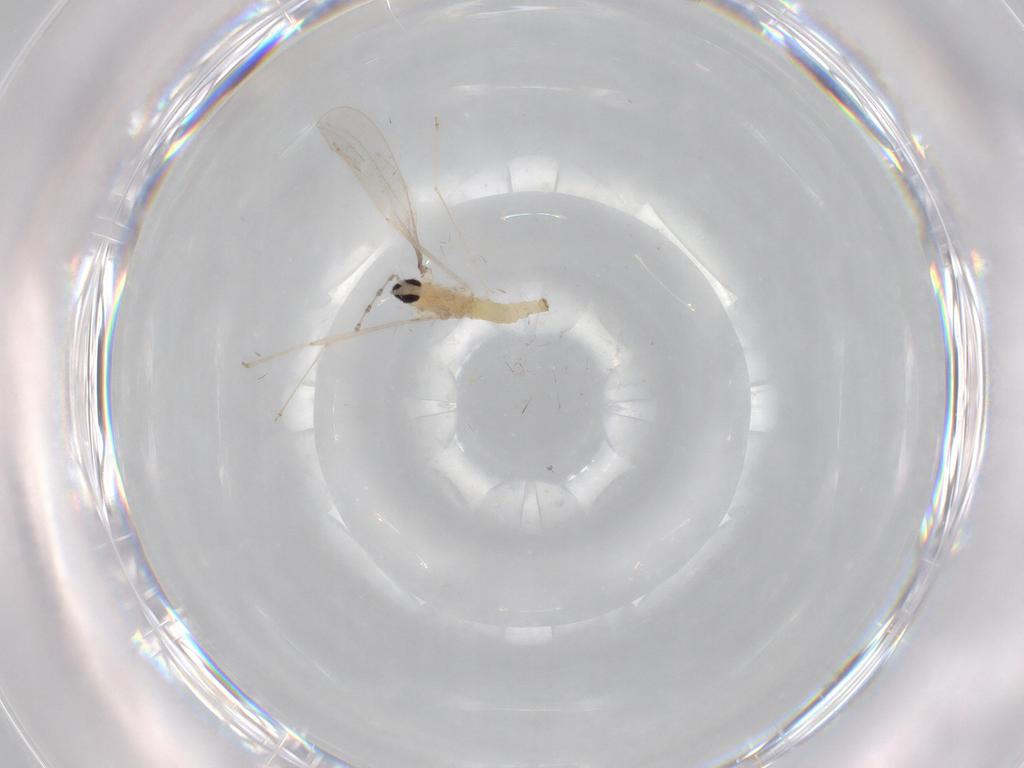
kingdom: Animalia
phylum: Arthropoda
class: Insecta
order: Diptera
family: Cecidomyiidae
